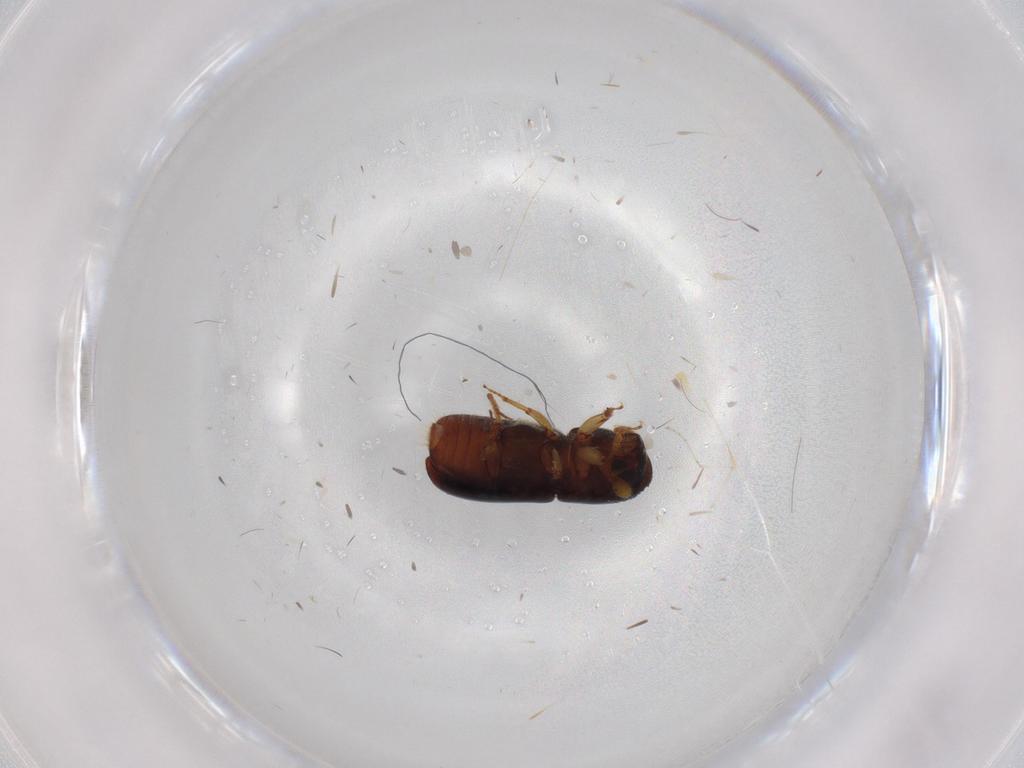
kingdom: Animalia
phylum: Arthropoda
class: Insecta
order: Coleoptera
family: Curculionidae
